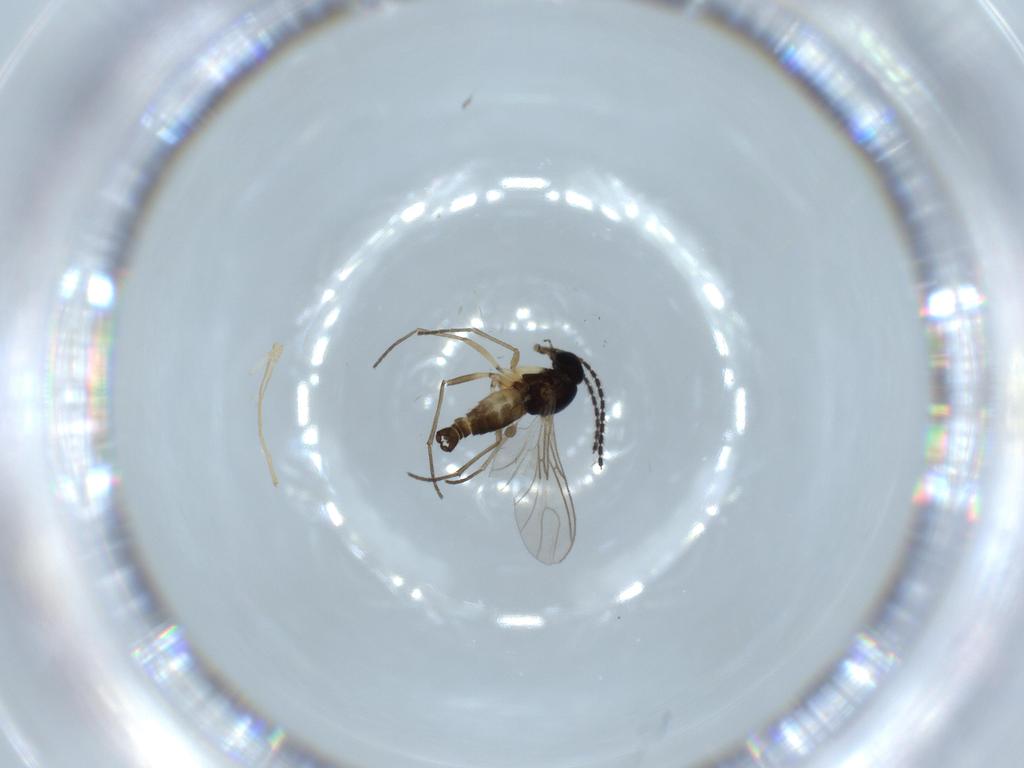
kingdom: Animalia
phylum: Arthropoda
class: Insecta
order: Diptera
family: Sciaridae
